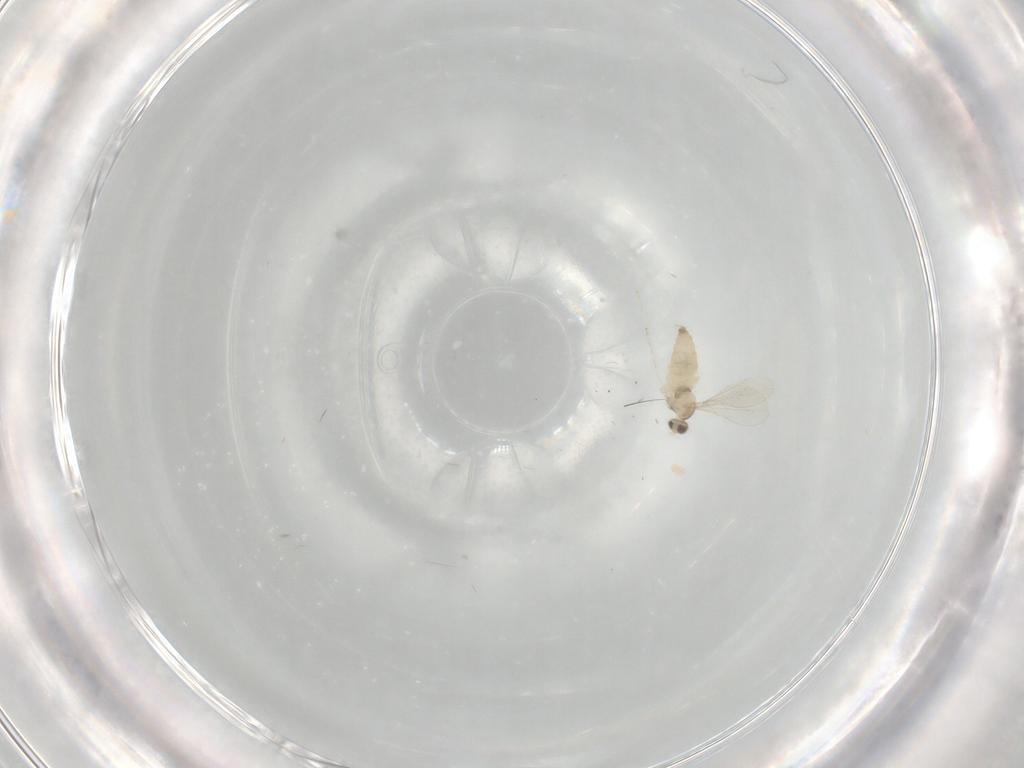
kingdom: Animalia
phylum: Arthropoda
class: Insecta
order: Diptera
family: Cecidomyiidae
